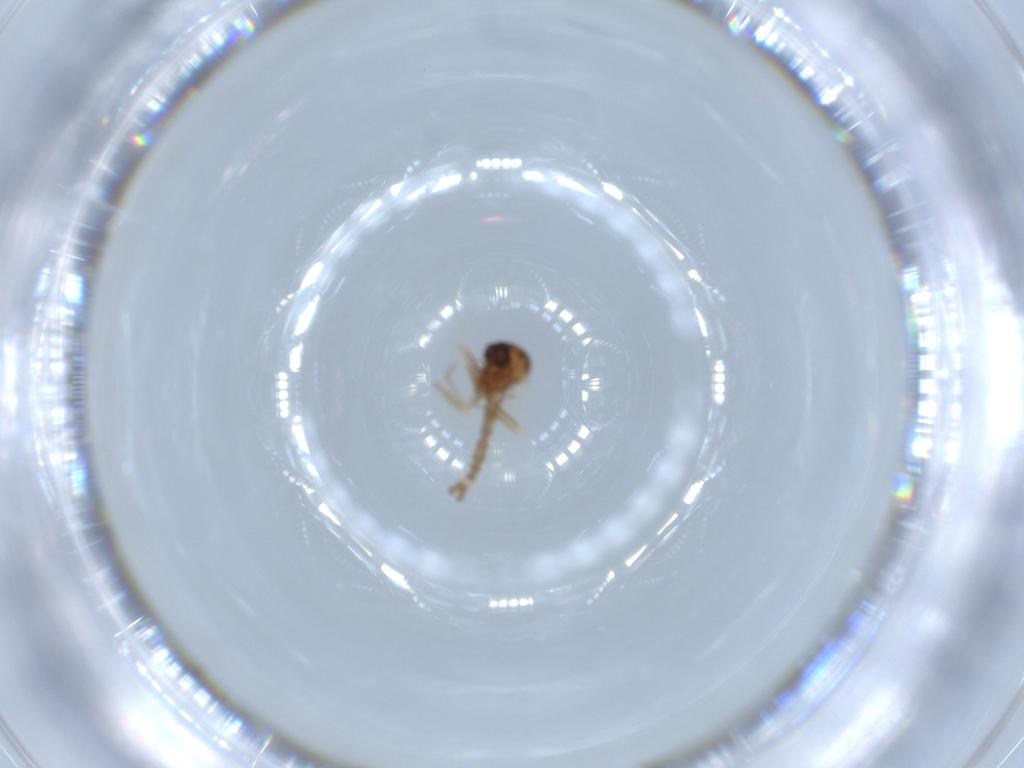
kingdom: Animalia
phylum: Arthropoda
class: Insecta
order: Diptera
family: Ceratopogonidae
